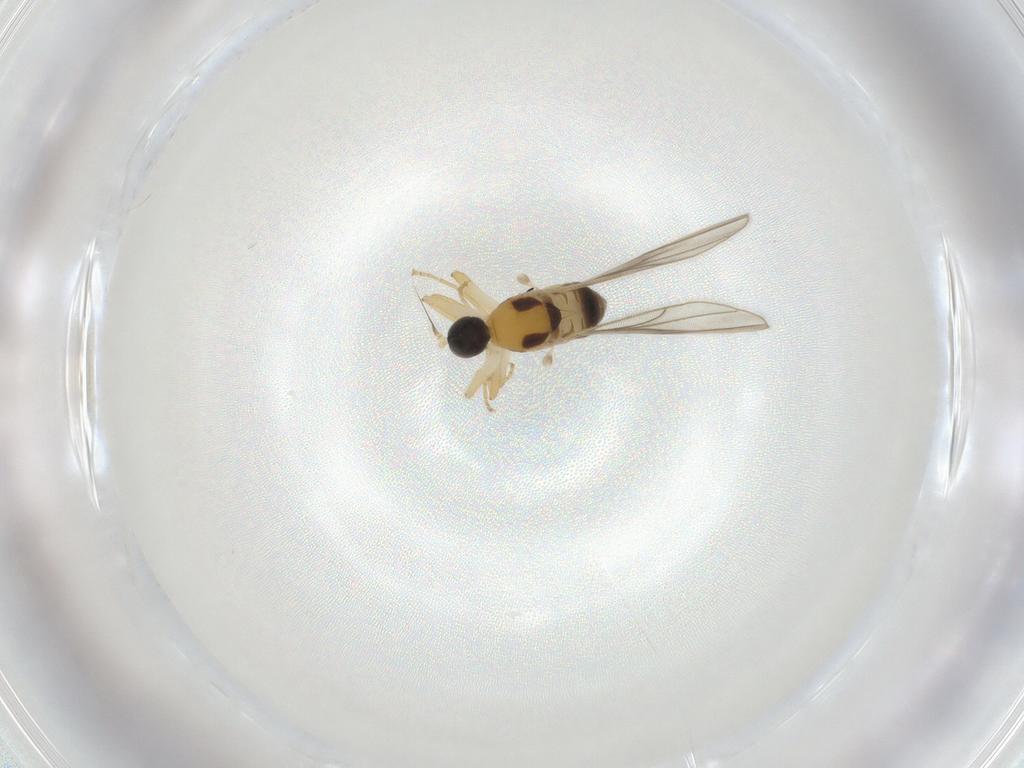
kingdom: Animalia
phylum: Arthropoda
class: Insecta
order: Diptera
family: Hybotidae
